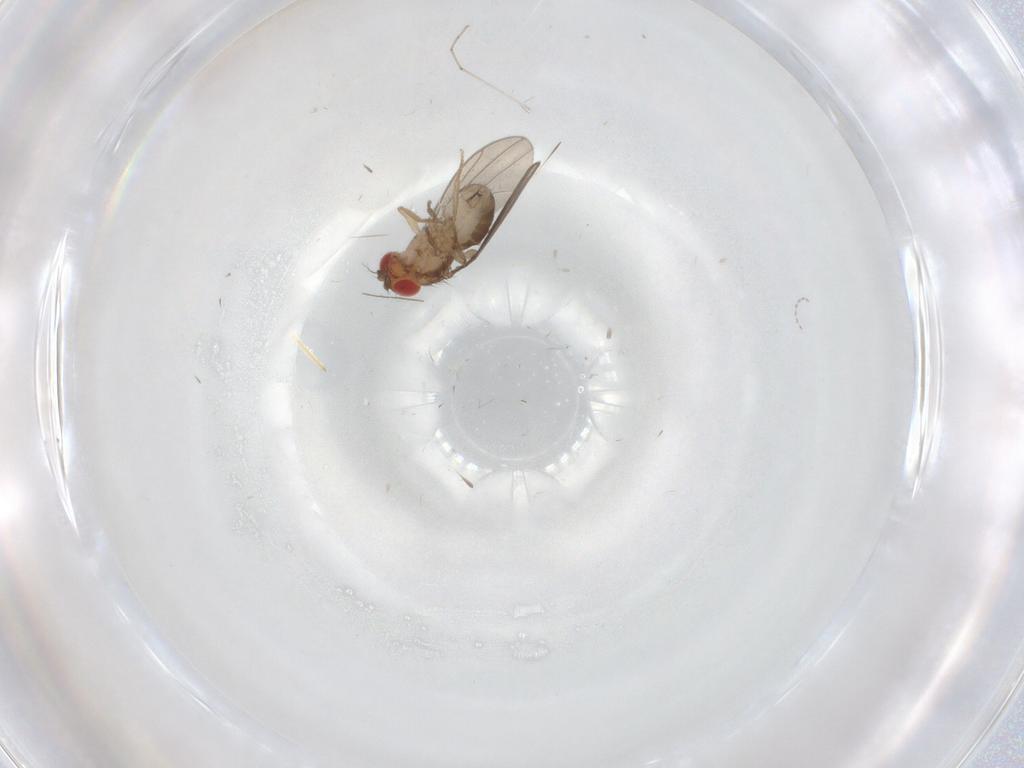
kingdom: Animalia
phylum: Arthropoda
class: Insecta
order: Diptera
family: Drosophilidae
